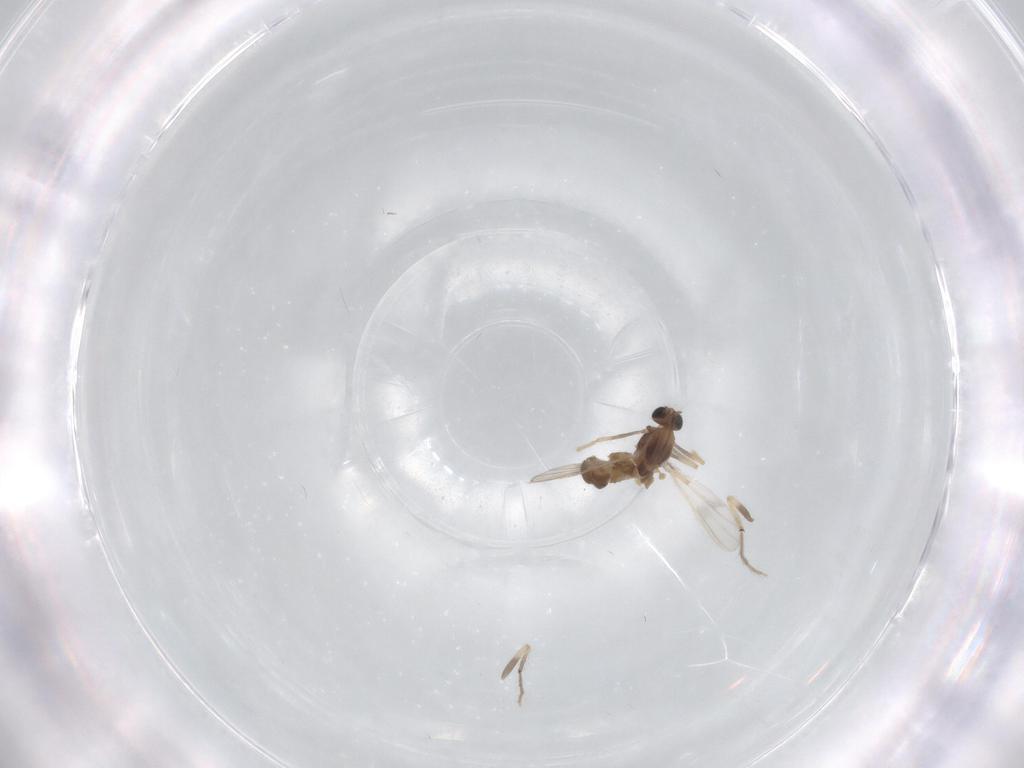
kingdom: Animalia
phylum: Arthropoda
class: Insecta
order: Diptera
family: Chironomidae
